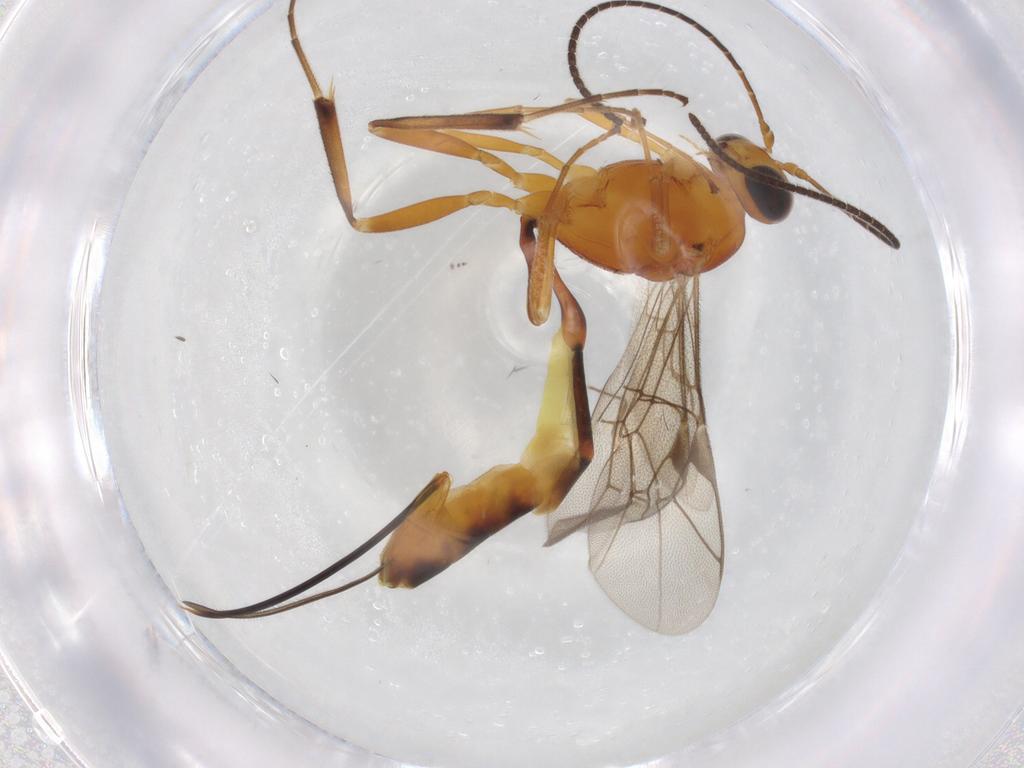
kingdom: Animalia
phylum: Arthropoda
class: Insecta
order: Hymenoptera
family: Ichneumonidae
